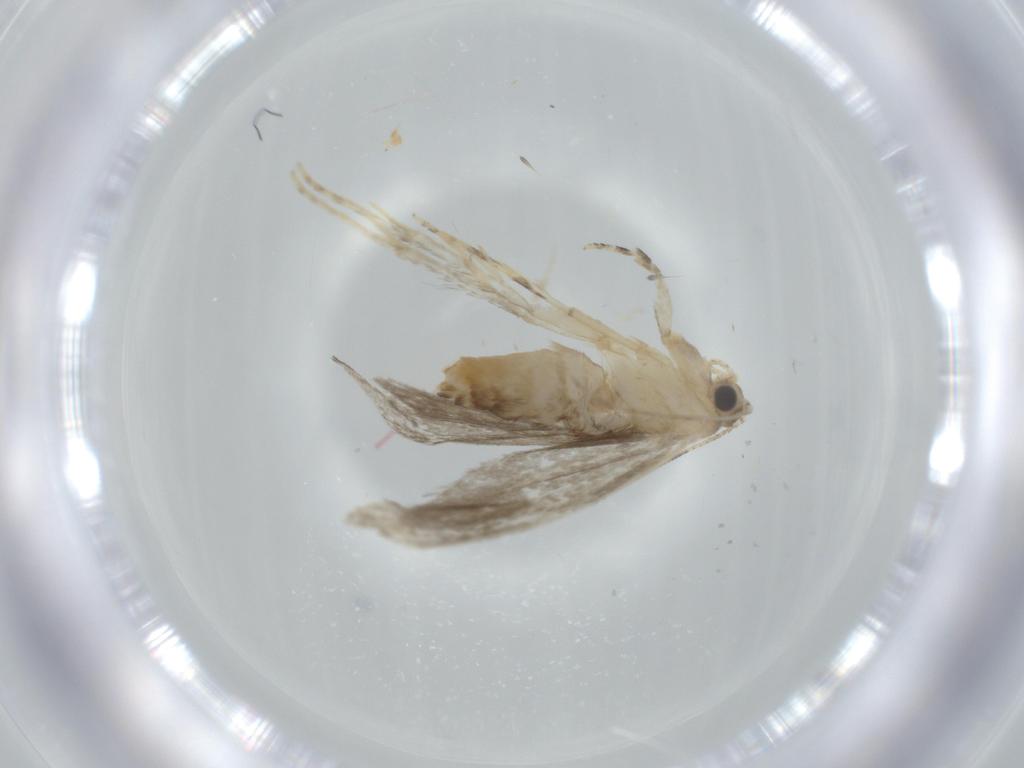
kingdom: Animalia
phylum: Arthropoda
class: Insecta
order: Lepidoptera
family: Tineidae
